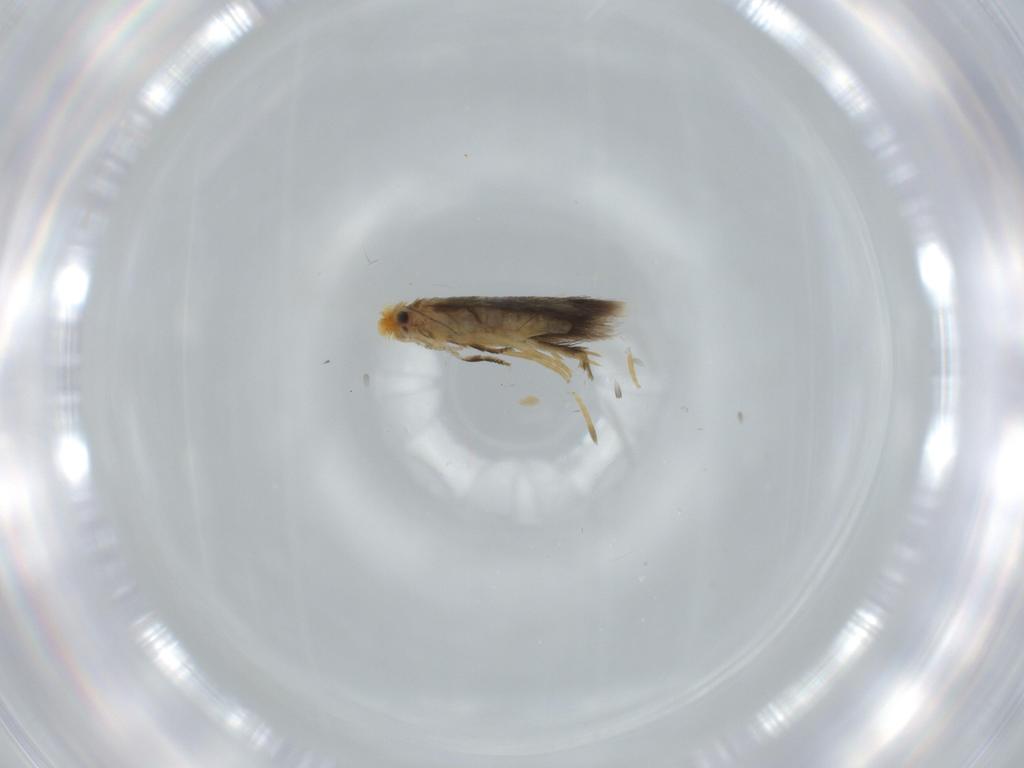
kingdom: Animalia
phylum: Arthropoda
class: Insecta
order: Lepidoptera
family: Nepticulidae
